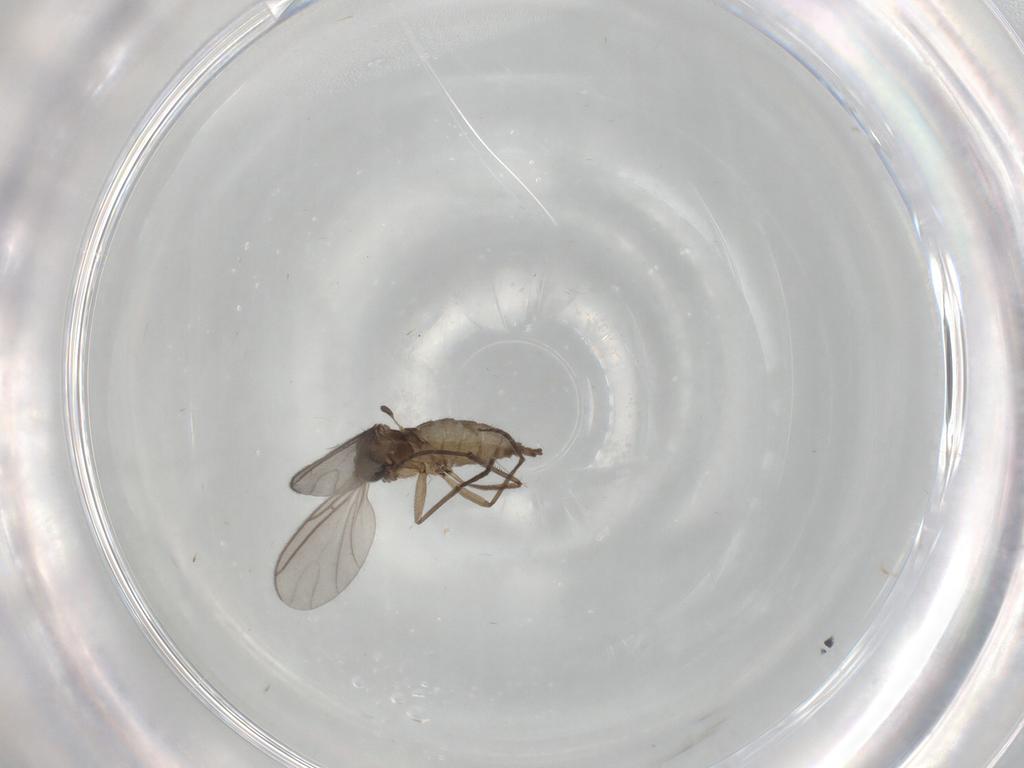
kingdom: Animalia
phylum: Arthropoda
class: Insecta
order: Diptera
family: Sciaridae
